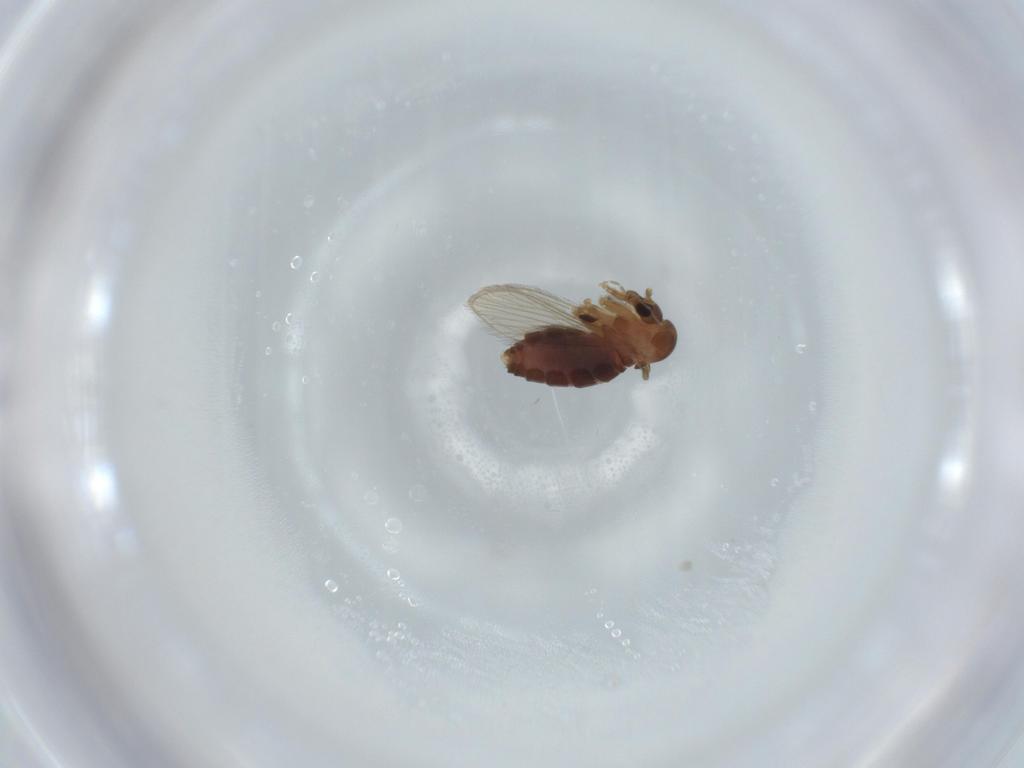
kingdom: Animalia
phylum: Arthropoda
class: Insecta
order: Diptera
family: Psychodidae
